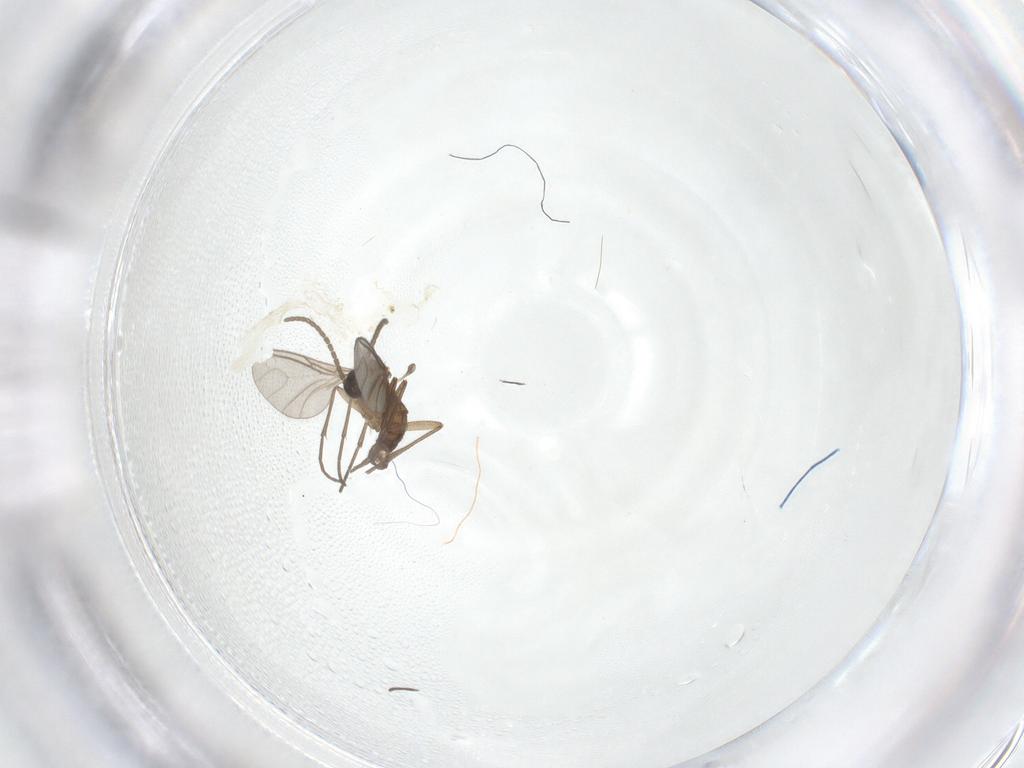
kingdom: Animalia
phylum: Arthropoda
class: Insecta
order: Diptera
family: Sciaridae
